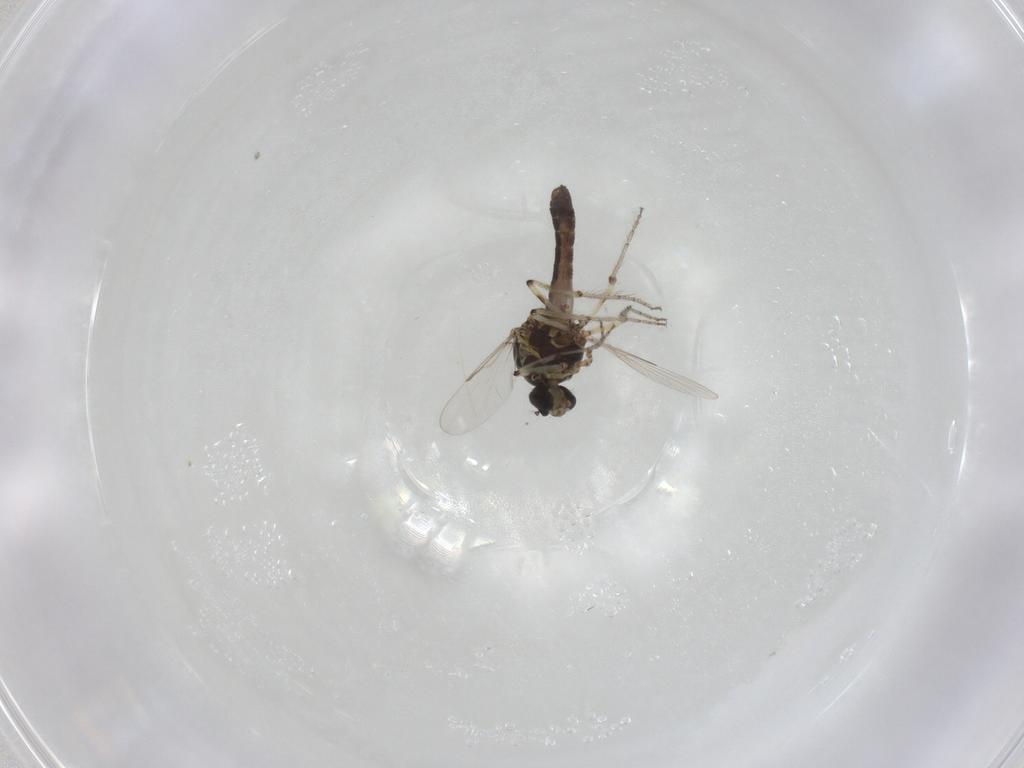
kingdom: Animalia
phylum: Arthropoda
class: Insecta
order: Diptera
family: Ceratopogonidae
